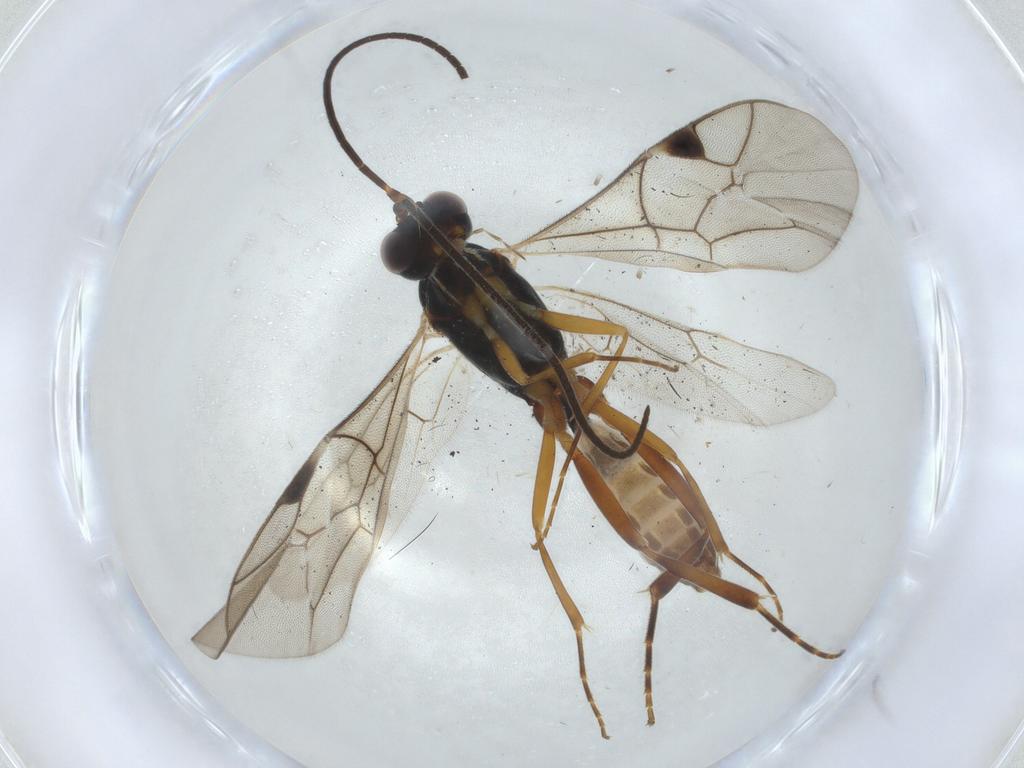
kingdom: Animalia
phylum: Arthropoda
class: Insecta
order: Hymenoptera
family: Ichneumonidae
